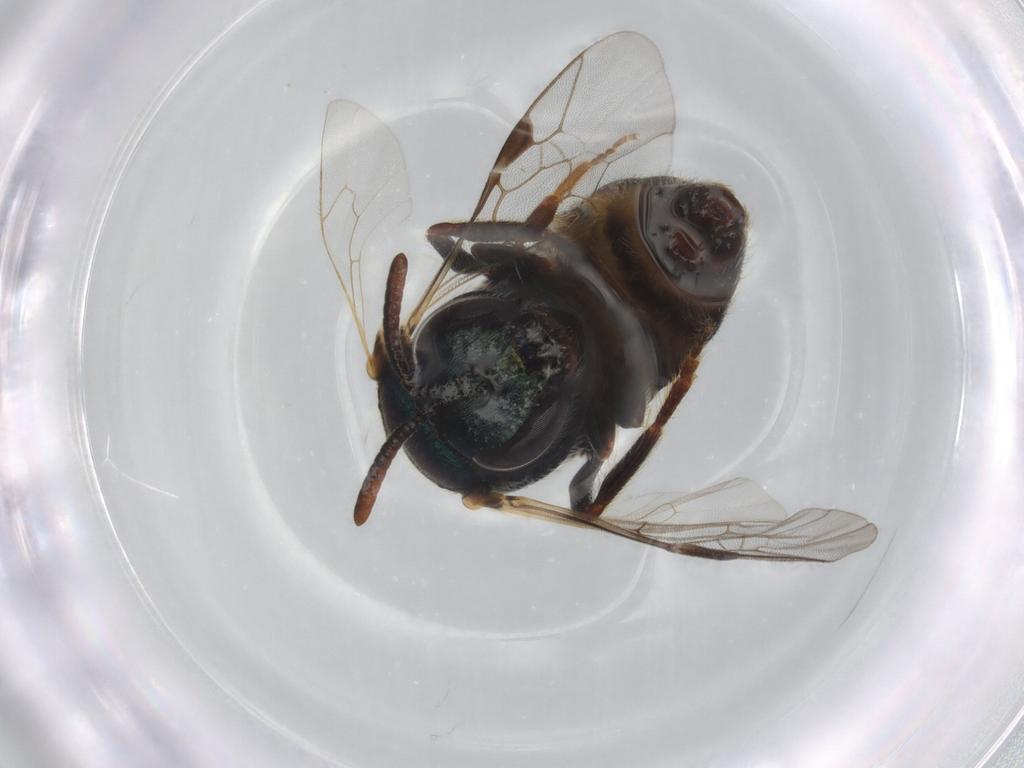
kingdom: Animalia
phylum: Arthropoda
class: Insecta
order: Hymenoptera
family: Halictidae
